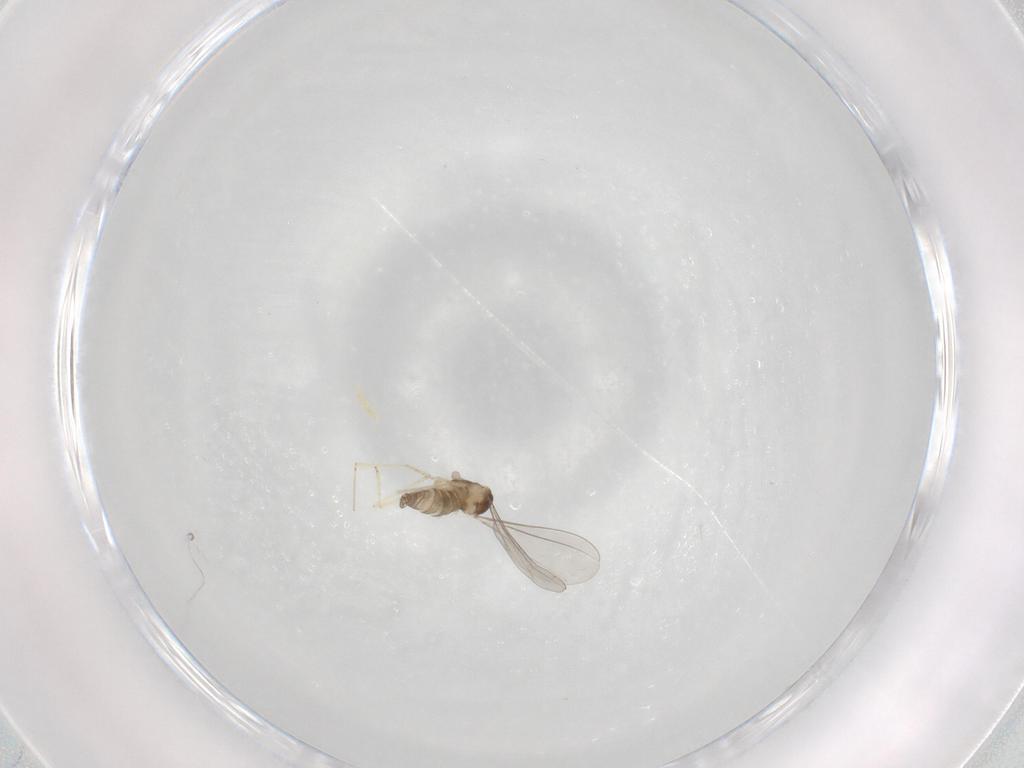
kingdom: Animalia
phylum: Arthropoda
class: Insecta
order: Diptera
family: Cecidomyiidae
